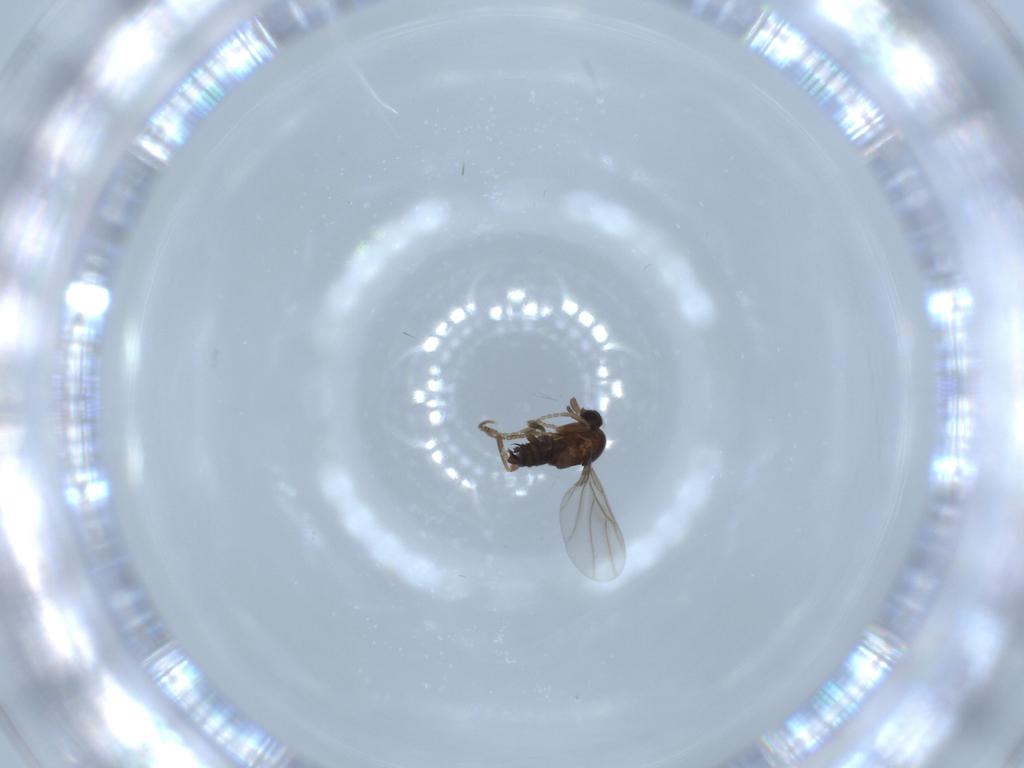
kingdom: Animalia
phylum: Arthropoda
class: Insecta
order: Diptera
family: Phoridae
